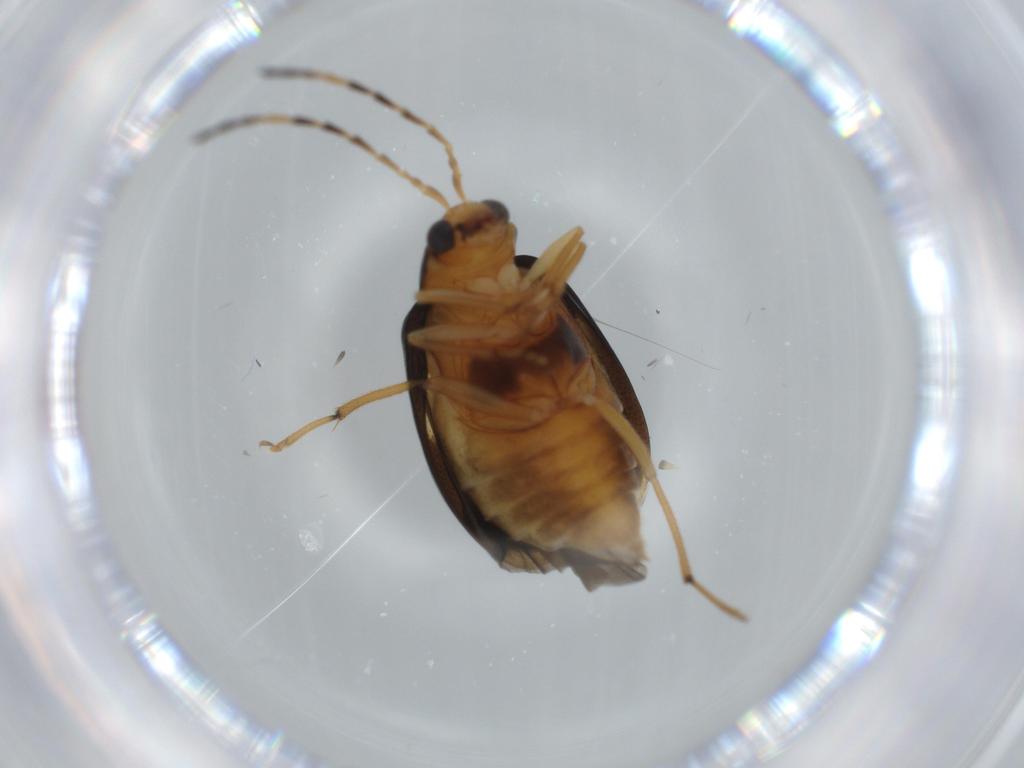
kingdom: Animalia
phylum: Arthropoda
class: Insecta
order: Coleoptera
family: Chrysomelidae
